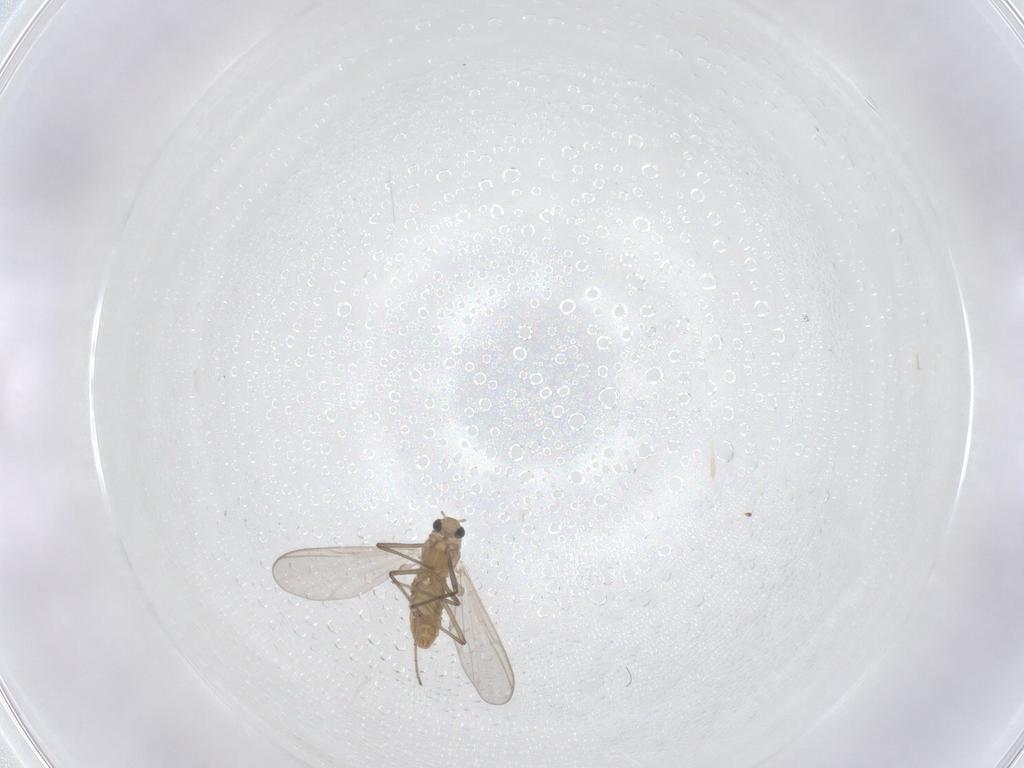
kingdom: Animalia
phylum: Arthropoda
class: Insecta
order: Diptera
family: Chironomidae
